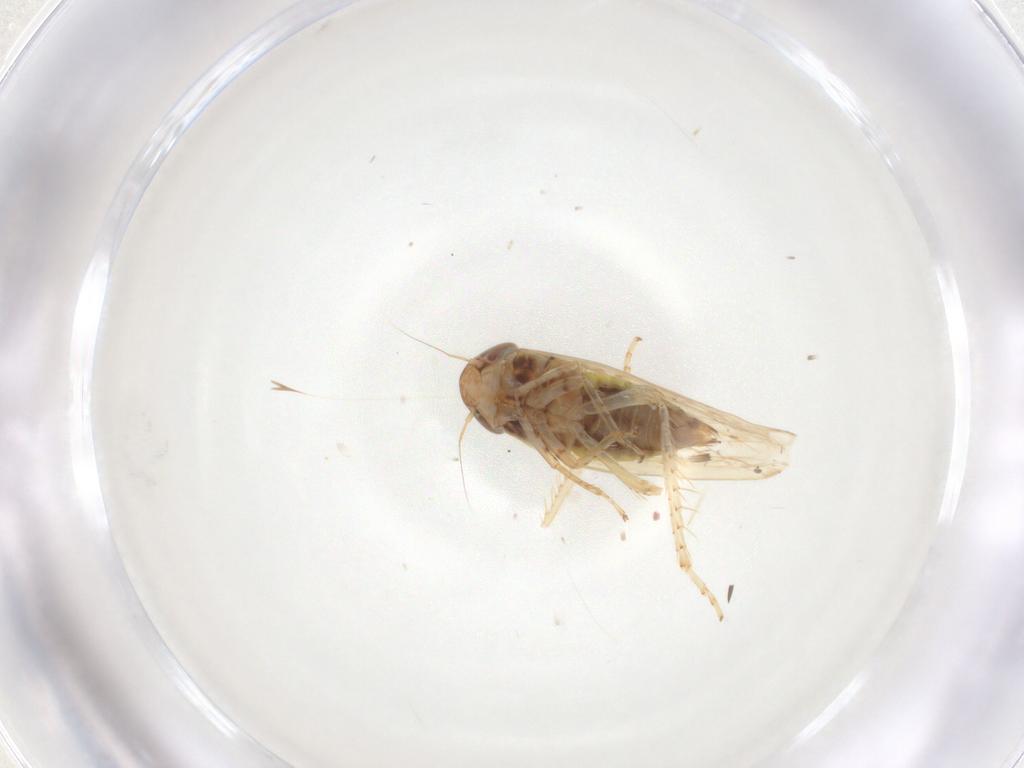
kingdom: Animalia
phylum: Arthropoda
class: Insecta
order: Hemiptera
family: Cicadellidae
